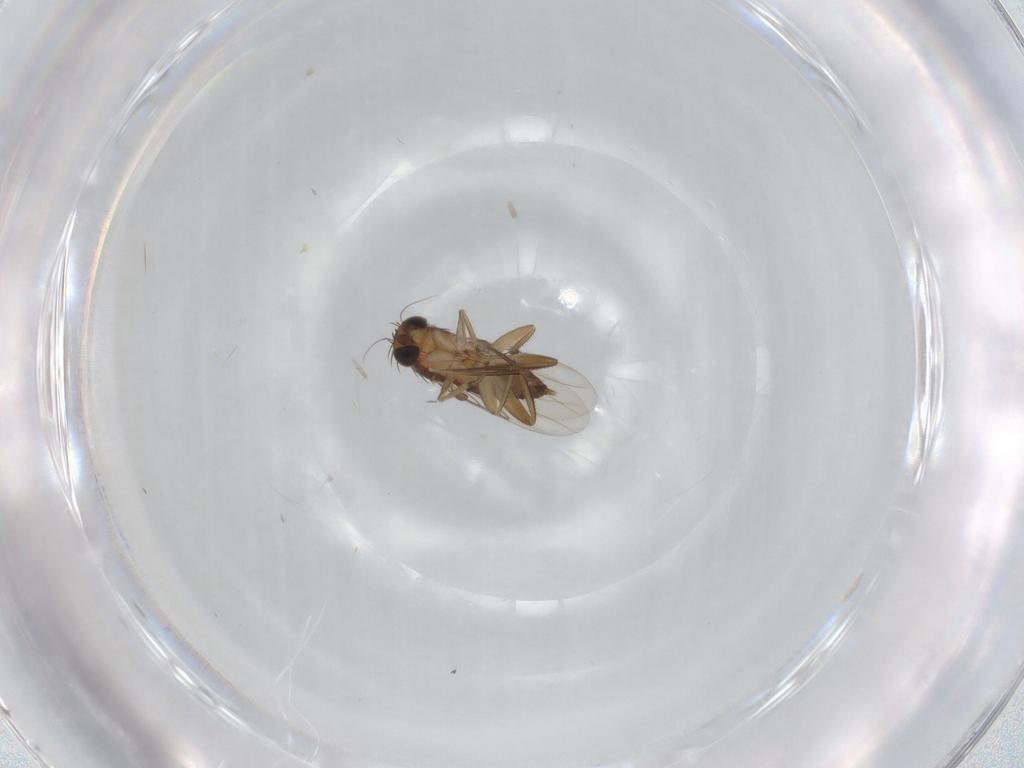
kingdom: Animalia
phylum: Arthropoda
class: Insecta
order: Diptera
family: Phoridae
